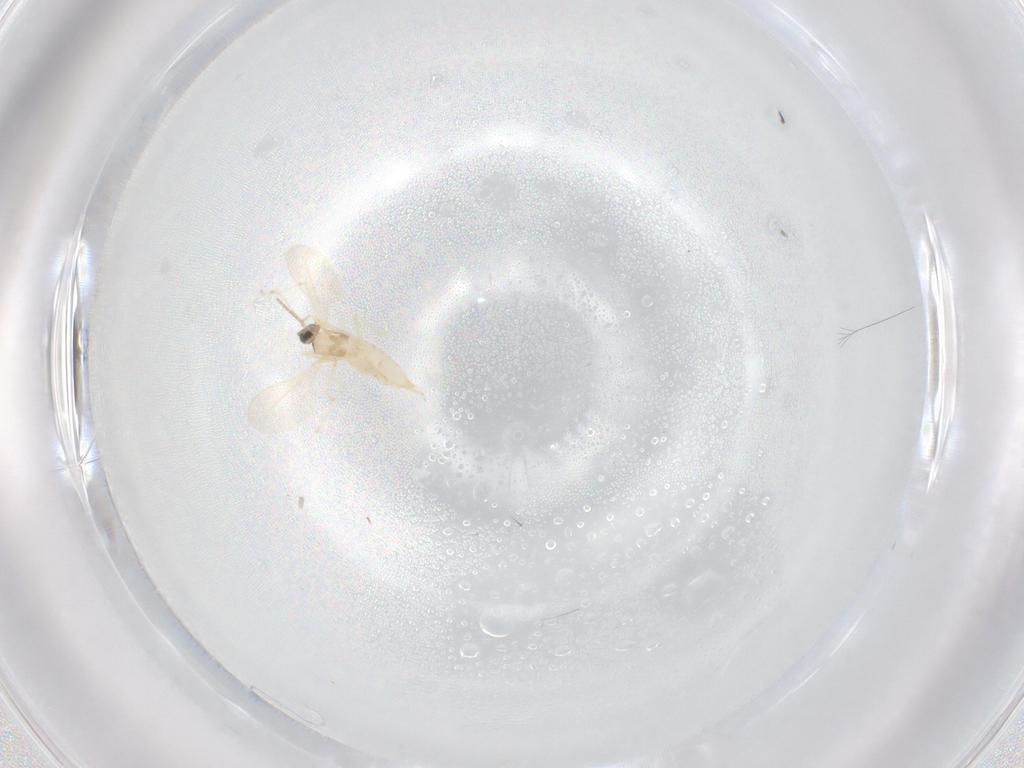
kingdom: Animalia
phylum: Arthropoda
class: Insecta
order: Diptera
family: Cecidomyiidae
